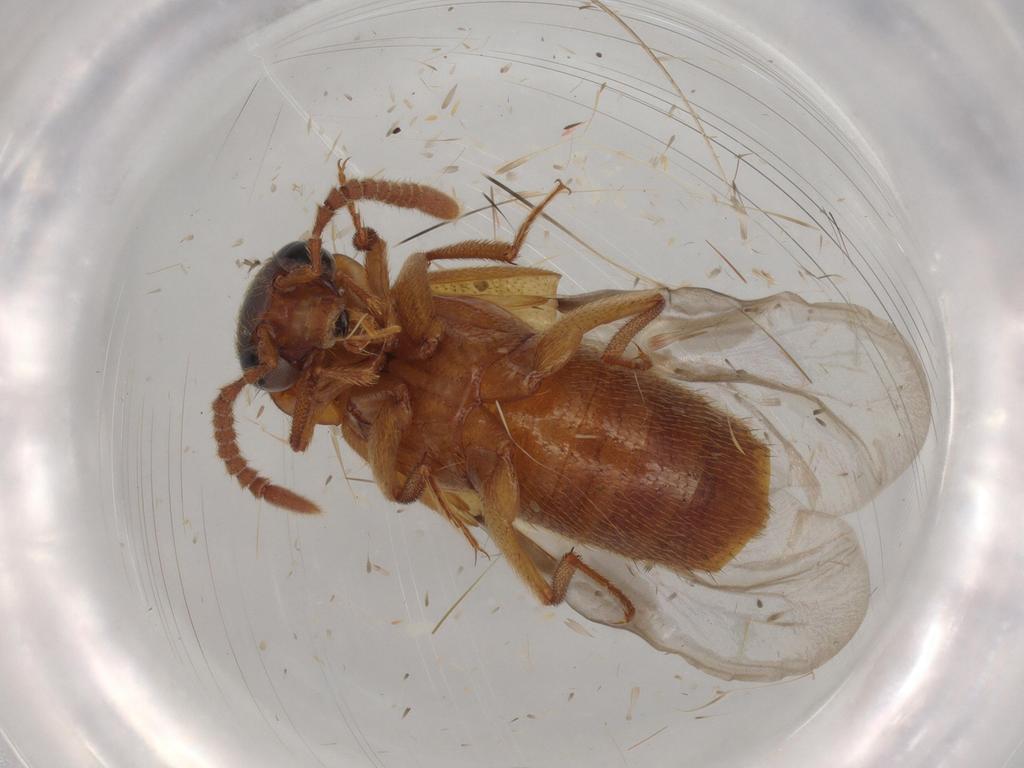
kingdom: Animalia
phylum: Arthropoda
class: Insecta
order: Coleoptera
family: Staphylinidae
